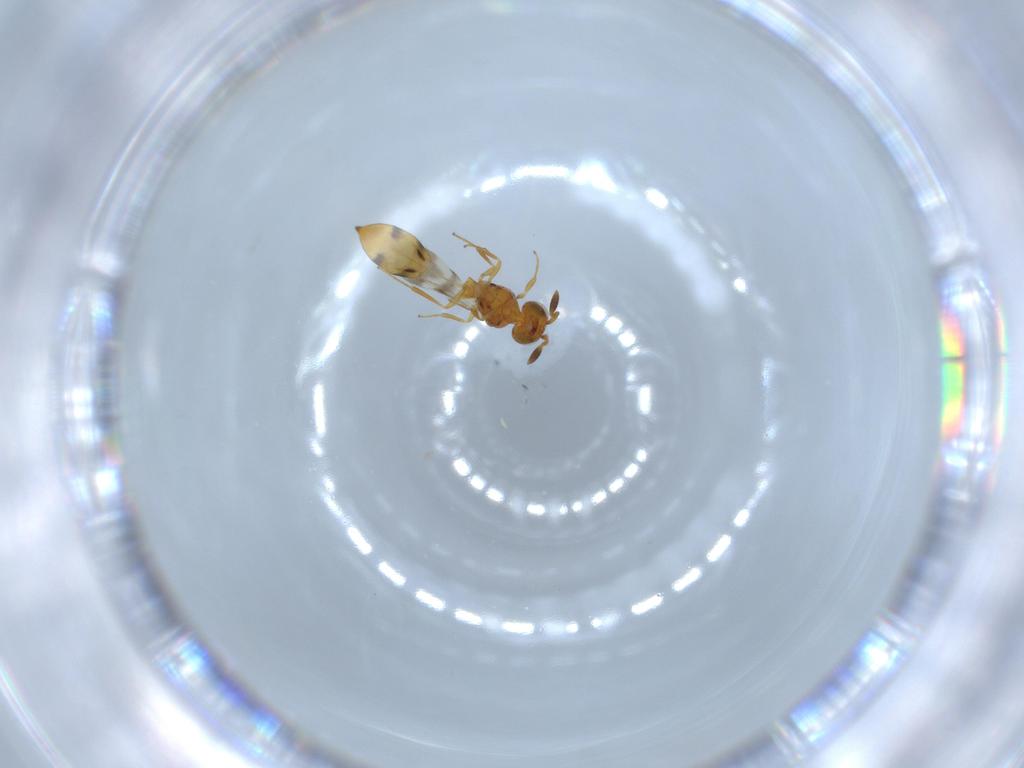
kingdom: Animalia
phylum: Arthropoda
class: Insecta
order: Hymenoptera
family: Scelionidae
